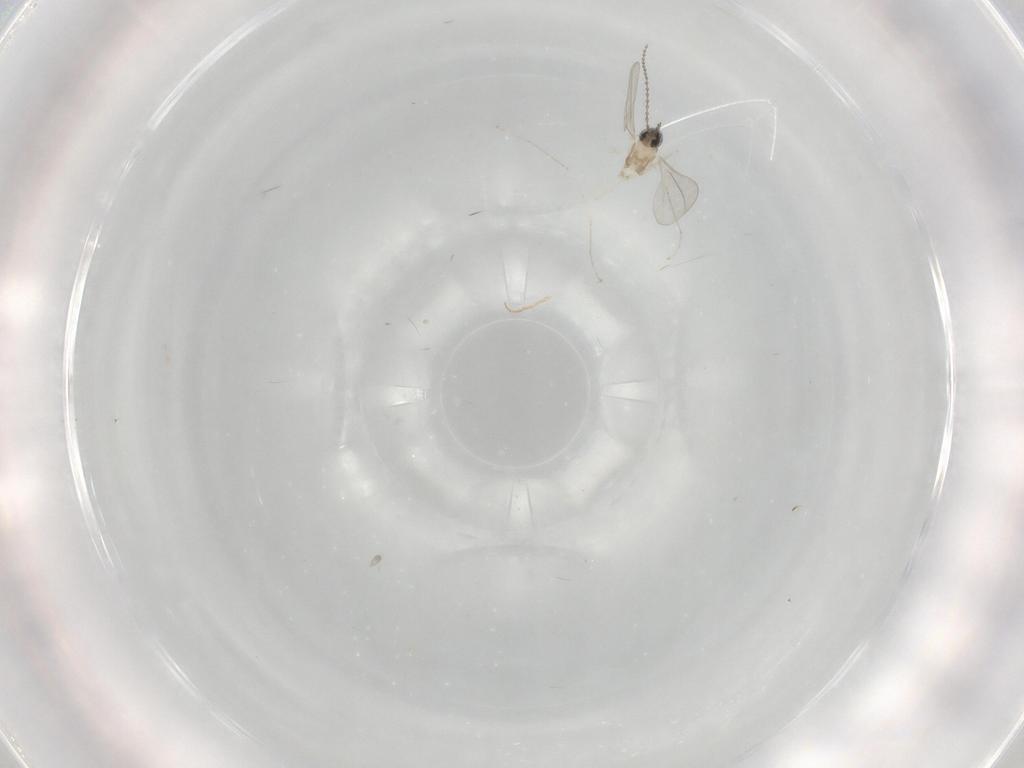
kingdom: Animalia
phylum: Arthropoda
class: Insecta
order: Diptera
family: Cecidomyiidae
